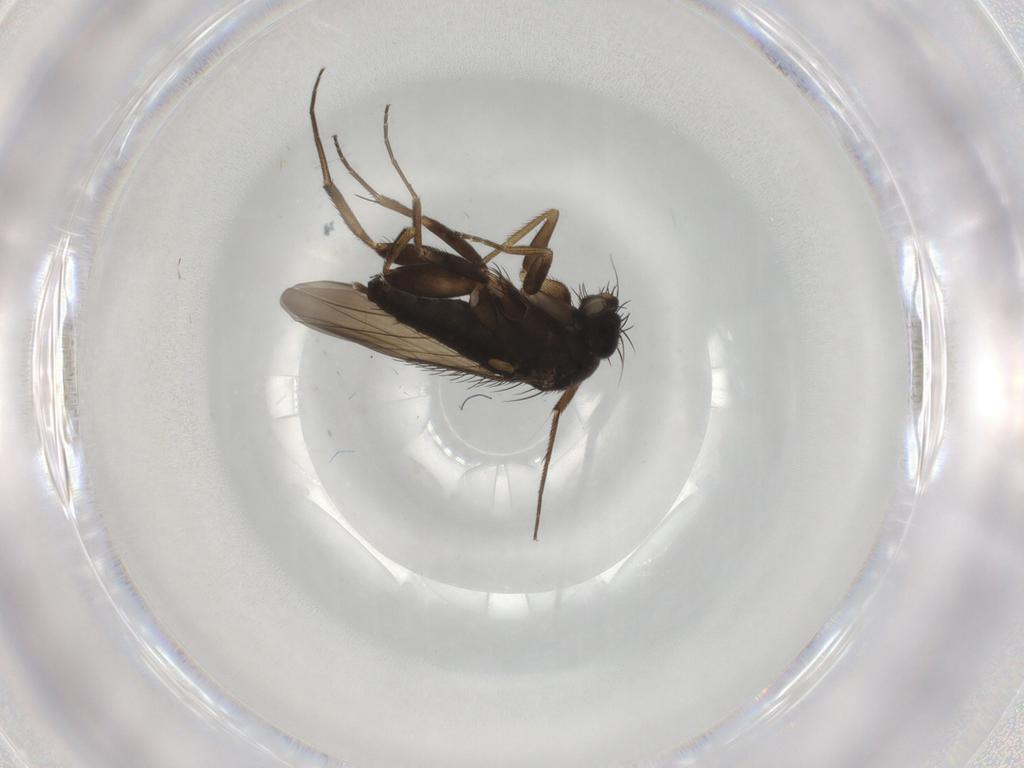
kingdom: Animalia
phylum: Arthropoda
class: Insecta
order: Diptera
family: Phoridae
